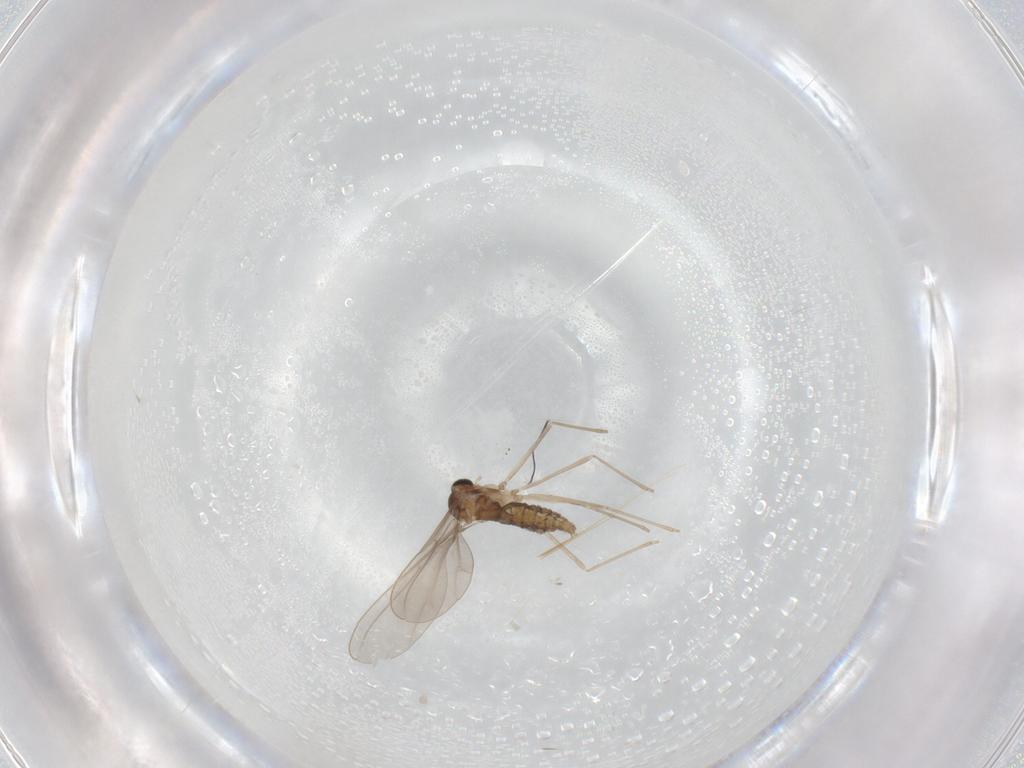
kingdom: Animalia
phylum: Arthropoda
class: Insecta
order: Diptera
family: Cecidomyiidae
